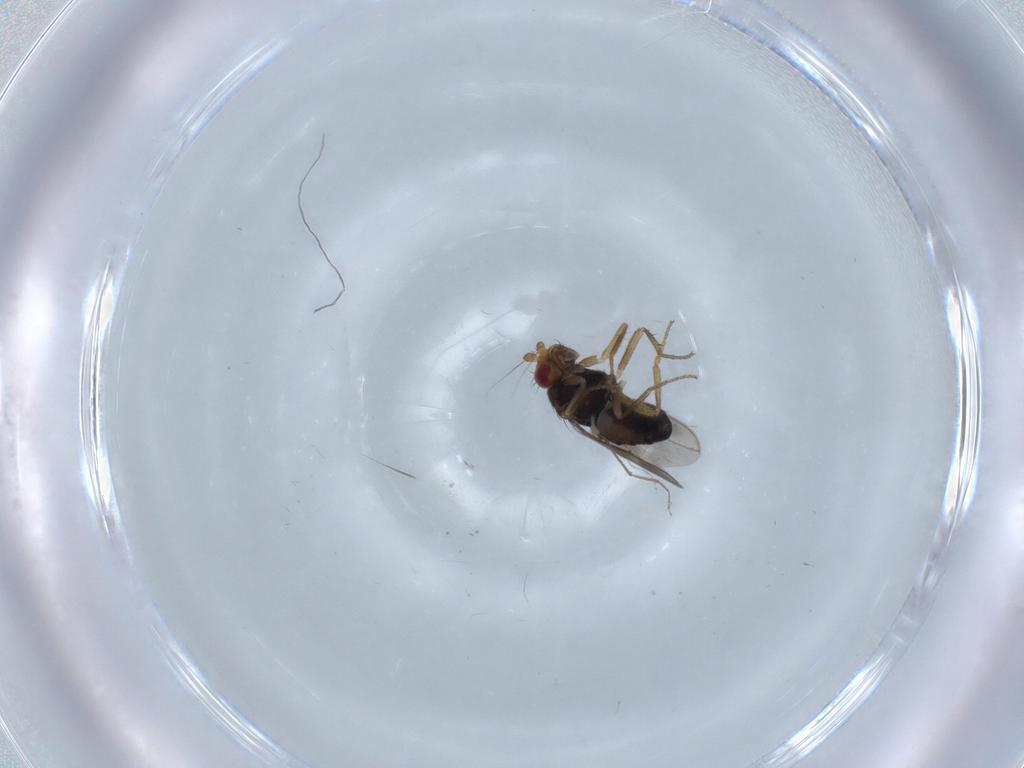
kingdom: Animalia
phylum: Arthropoda
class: Insecta
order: Diptera
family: Sphaeroceridae
